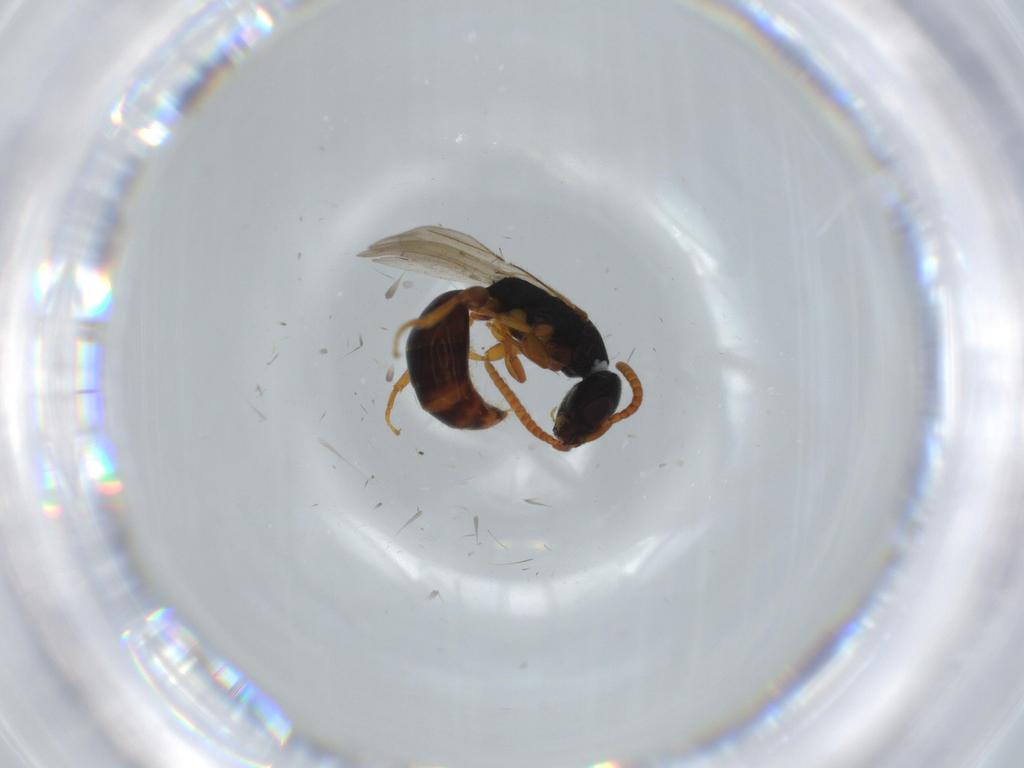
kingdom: Animalia
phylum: Arthropoda
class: Insecta
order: Hymenoptera
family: Bethylidae
